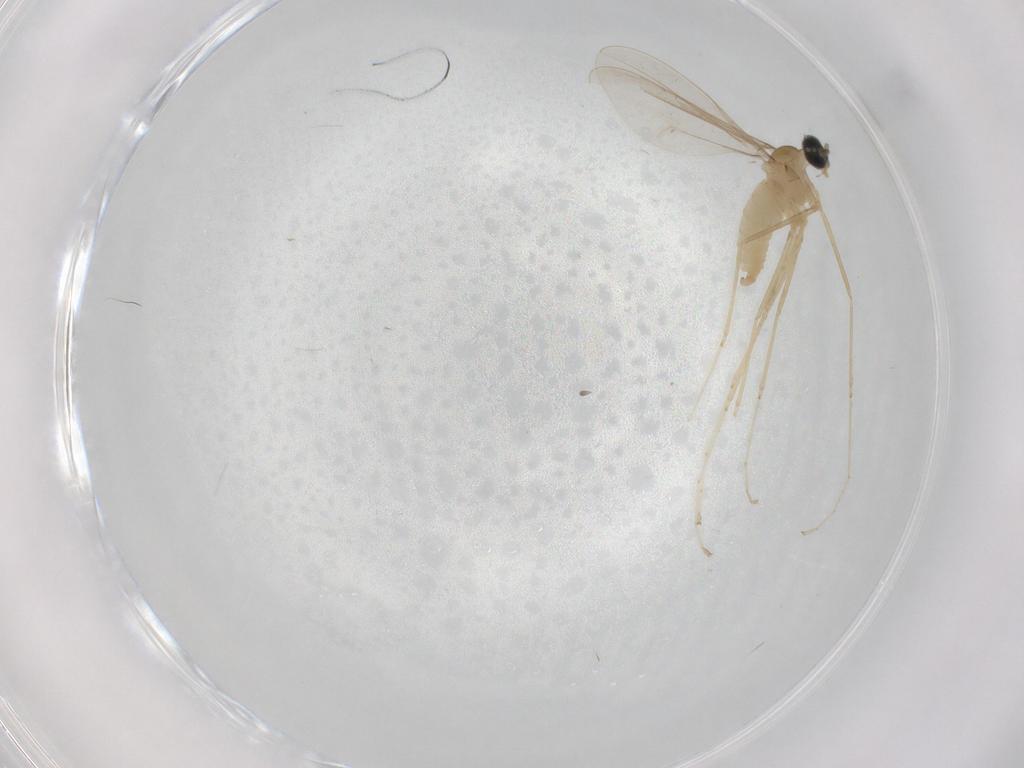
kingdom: Animalia
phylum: Arthropoda
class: Insecta
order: Diptera
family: Cecidomyiidae
